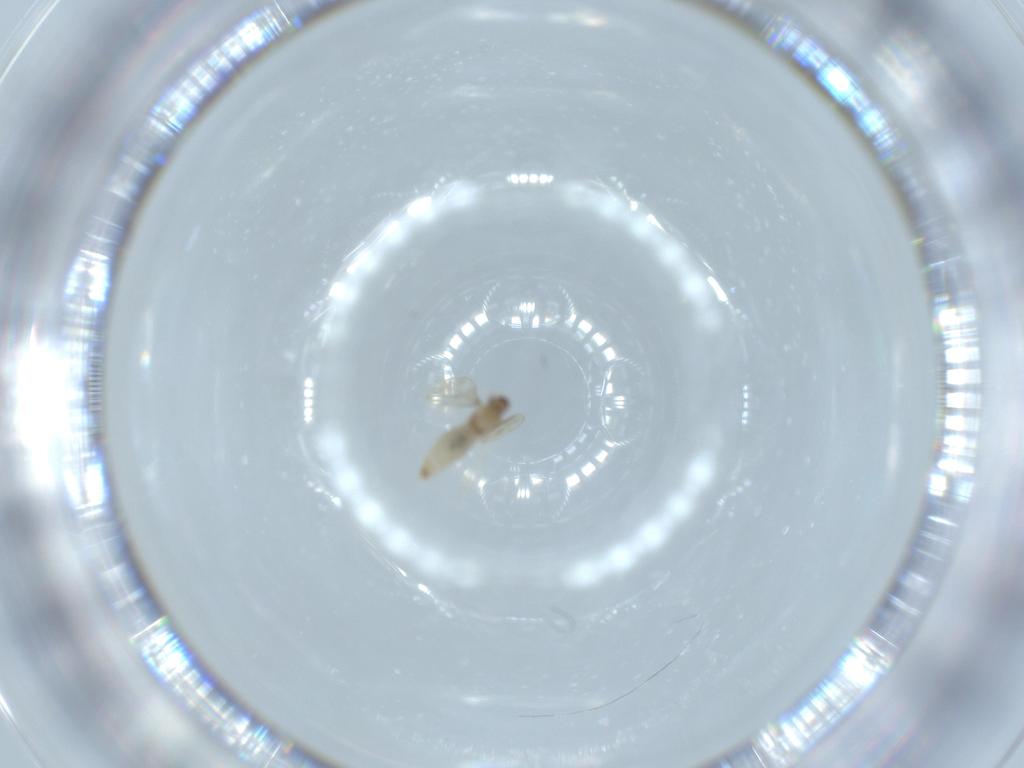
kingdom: Animalia
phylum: Arthropoda
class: Insecta
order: Diptera
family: Cecidomyiidae
